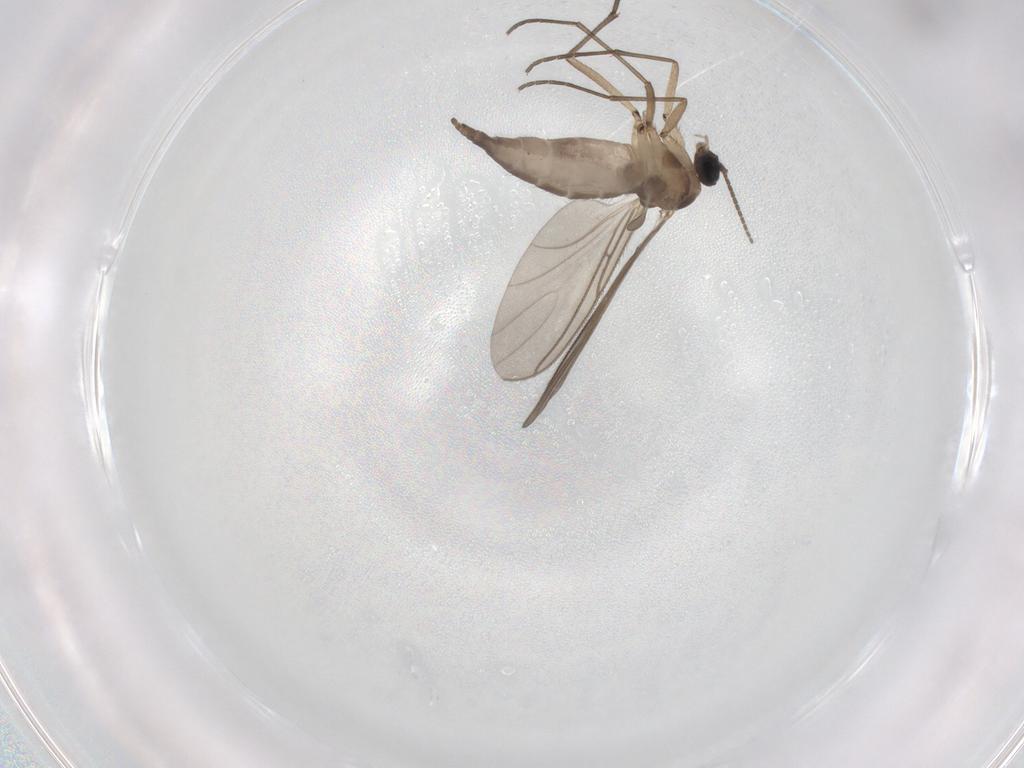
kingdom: Animalia
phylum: Arthropoda
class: Insecta
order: Diptera
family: Sciaridae
